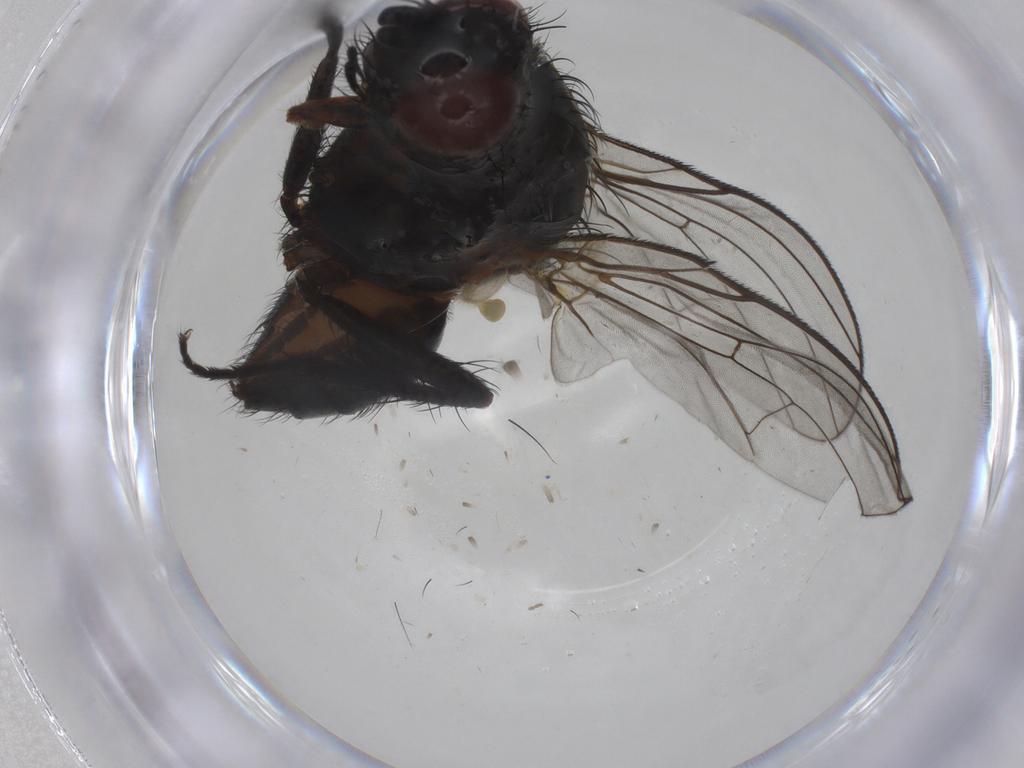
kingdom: Animalia
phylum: Arthropoda
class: Insecta
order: Diptera
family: Anthomyiidae
